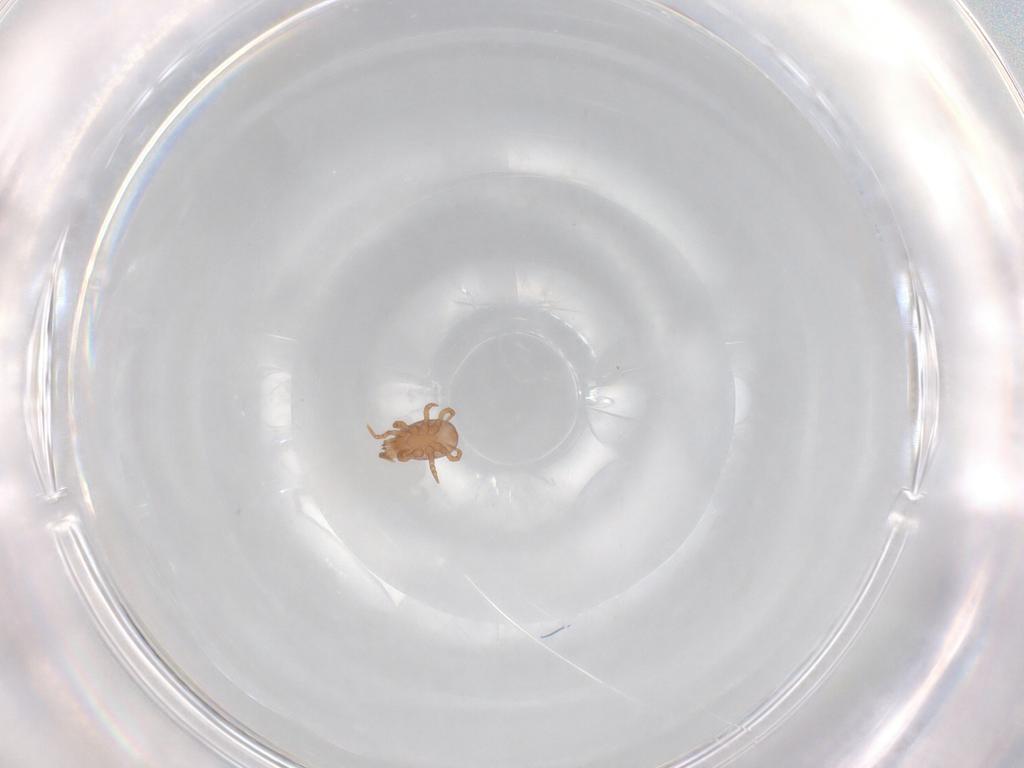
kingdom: Animalia
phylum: Arthropoda
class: Arachnida
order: Mesostigmata
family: Eviphididae
